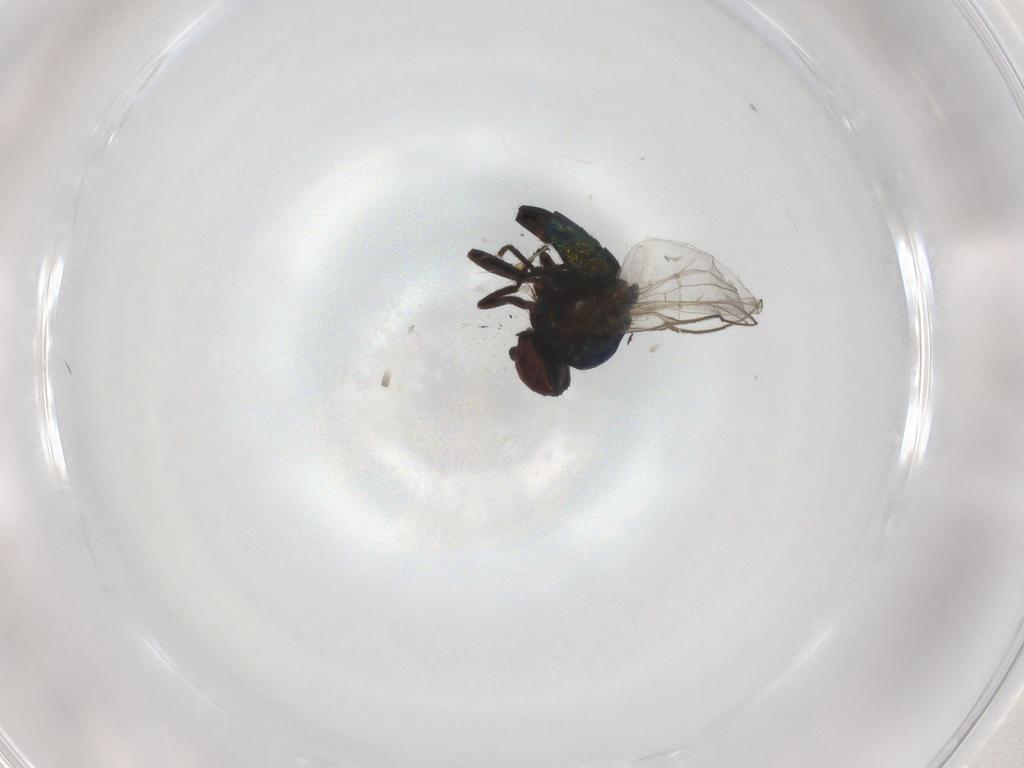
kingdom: Animalia
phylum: Arthropoda
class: Insecta
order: Diptera
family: Agromyzidae
